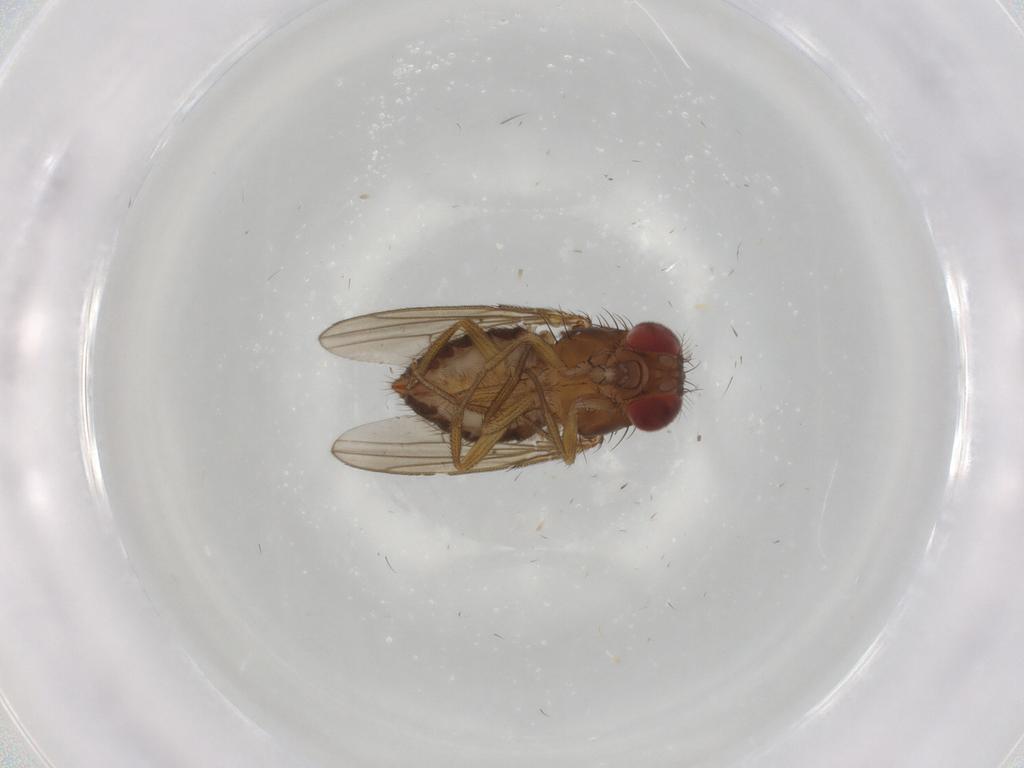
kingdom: Animalia
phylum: Arthropoda
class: Insecta
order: Diptera
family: Drosophilidae
